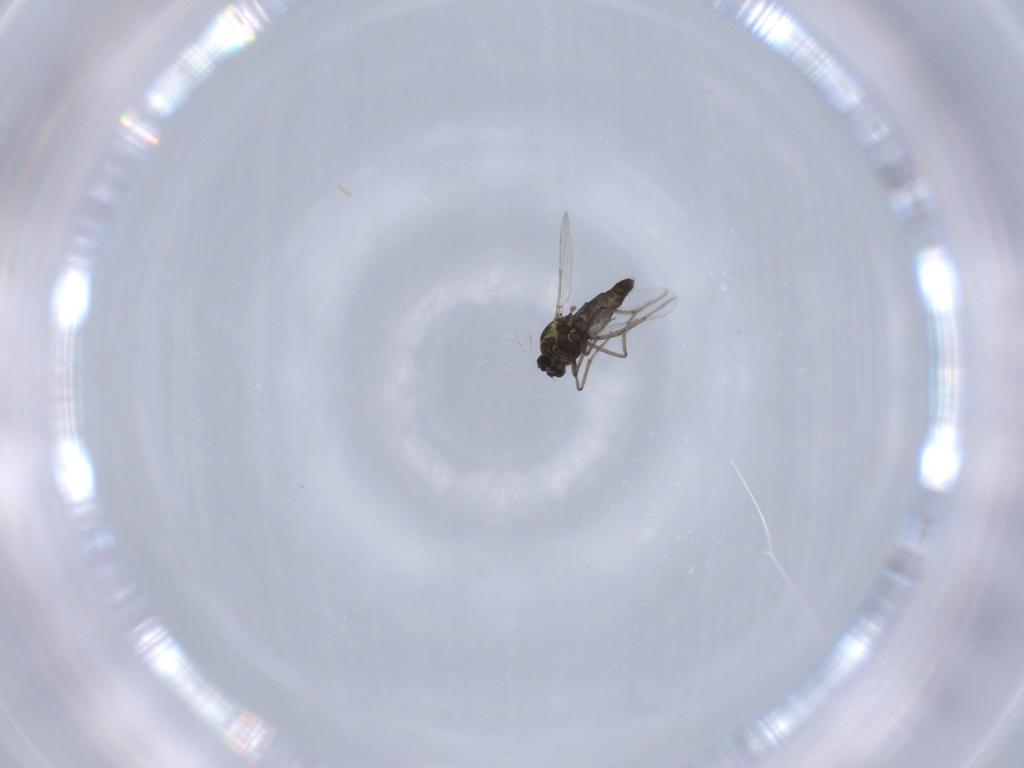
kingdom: Animalia
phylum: Arthropoda
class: Insecta
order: Diptera
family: Ceratopogonidae
